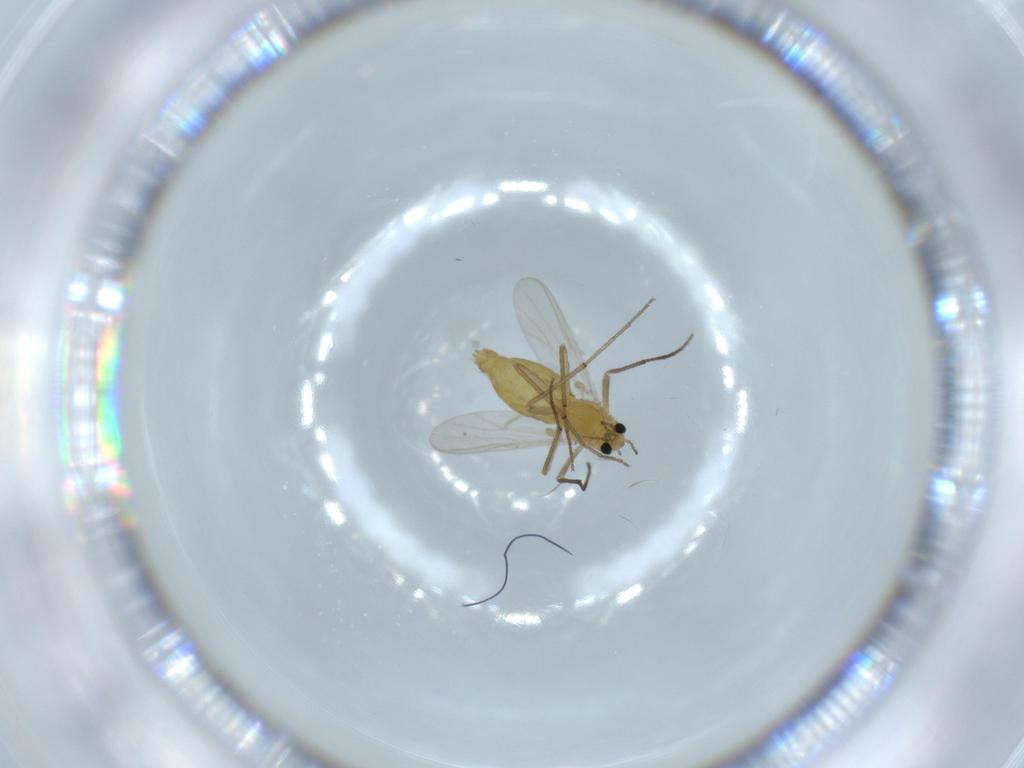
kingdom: Animalia
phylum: Arthropoda
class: Insecta
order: Diptera
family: Chironomidae
